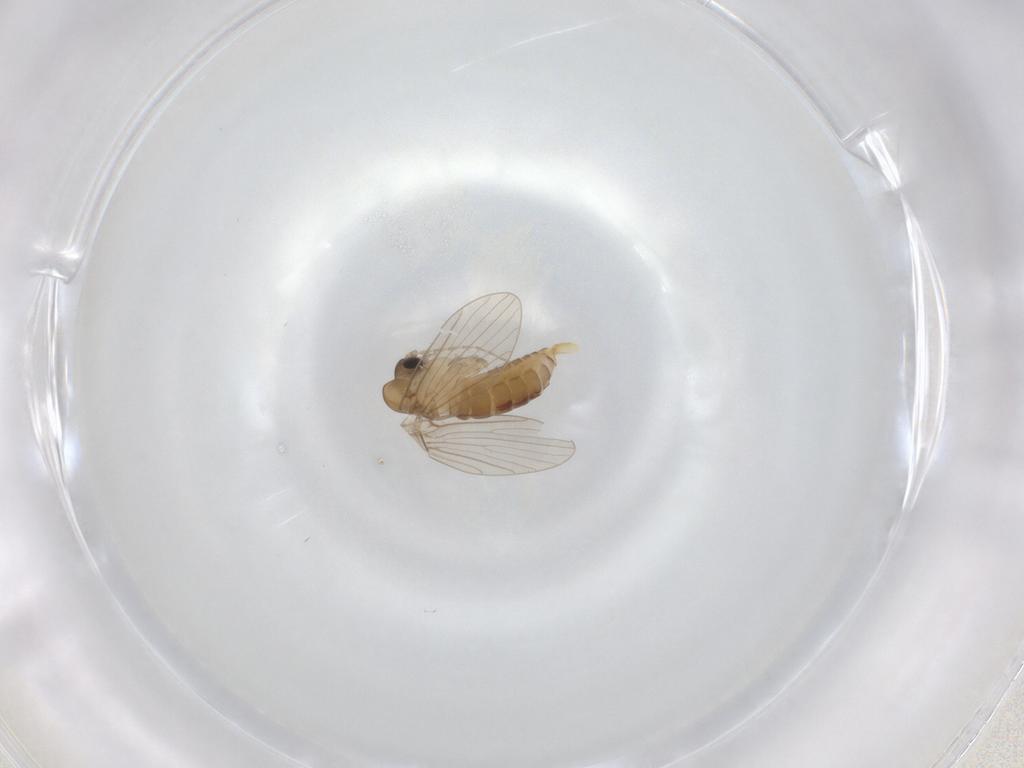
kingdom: Animalia
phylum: Arthropoda
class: Insecta
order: Diptera
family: Psychodidae
